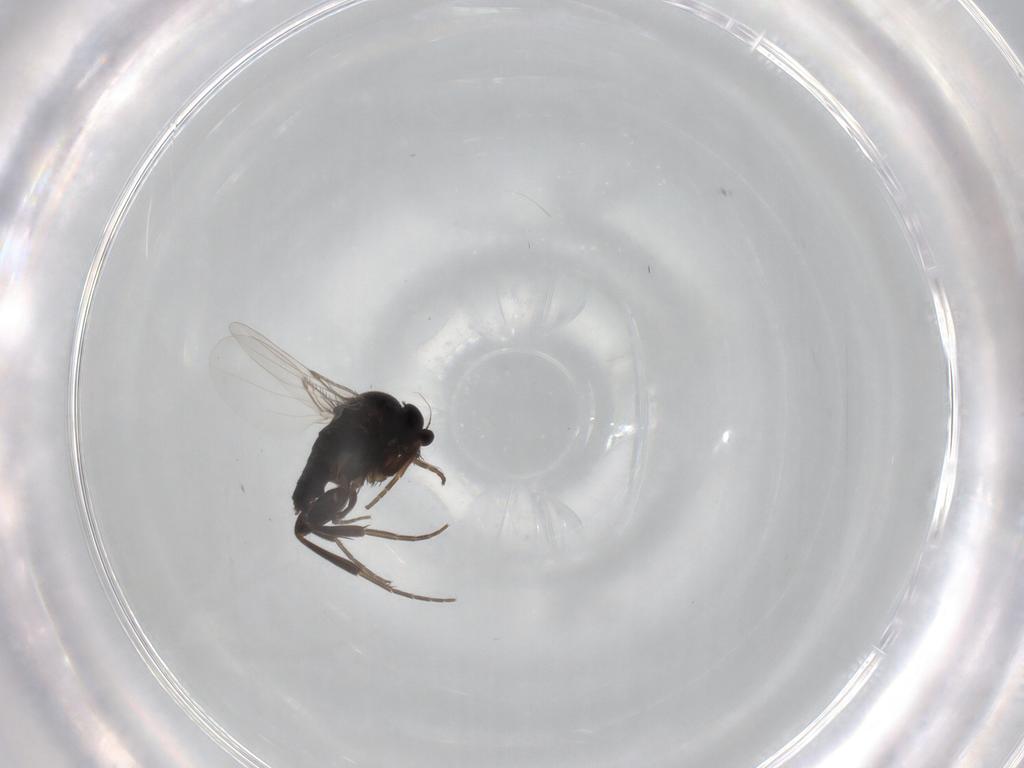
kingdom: Animalia
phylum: Arthropoda
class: Insecta
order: Diptera
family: Phoridae
